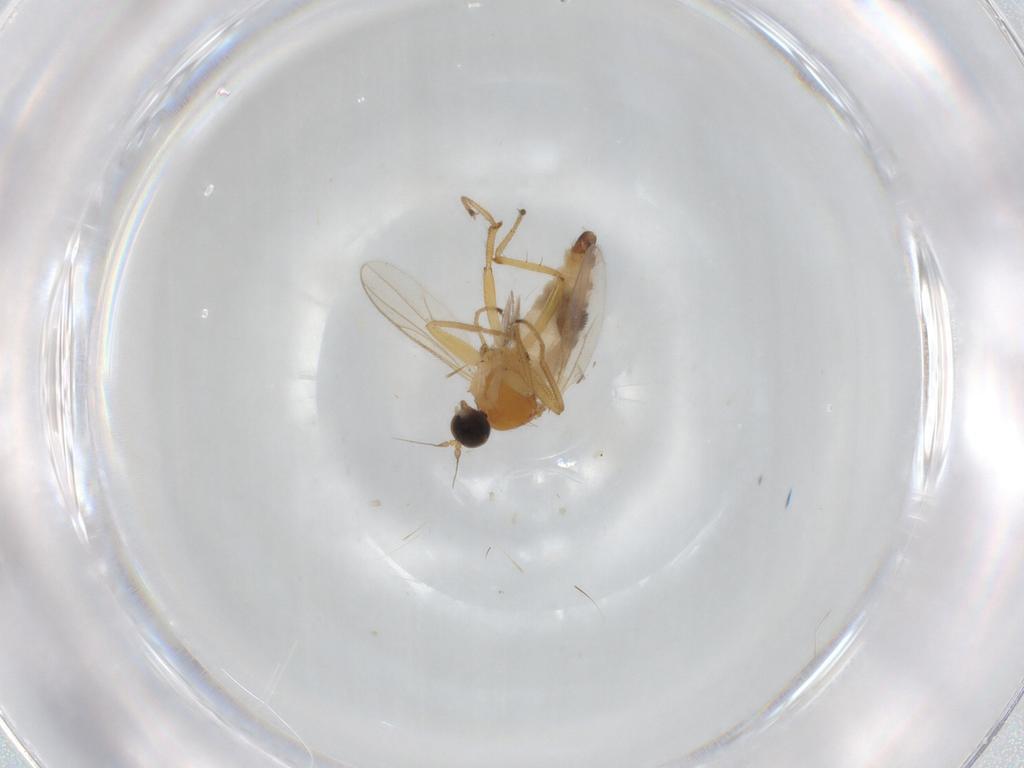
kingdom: Animalia
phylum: Arthropoda
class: Insecta
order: Diptera
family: Hybotidae
